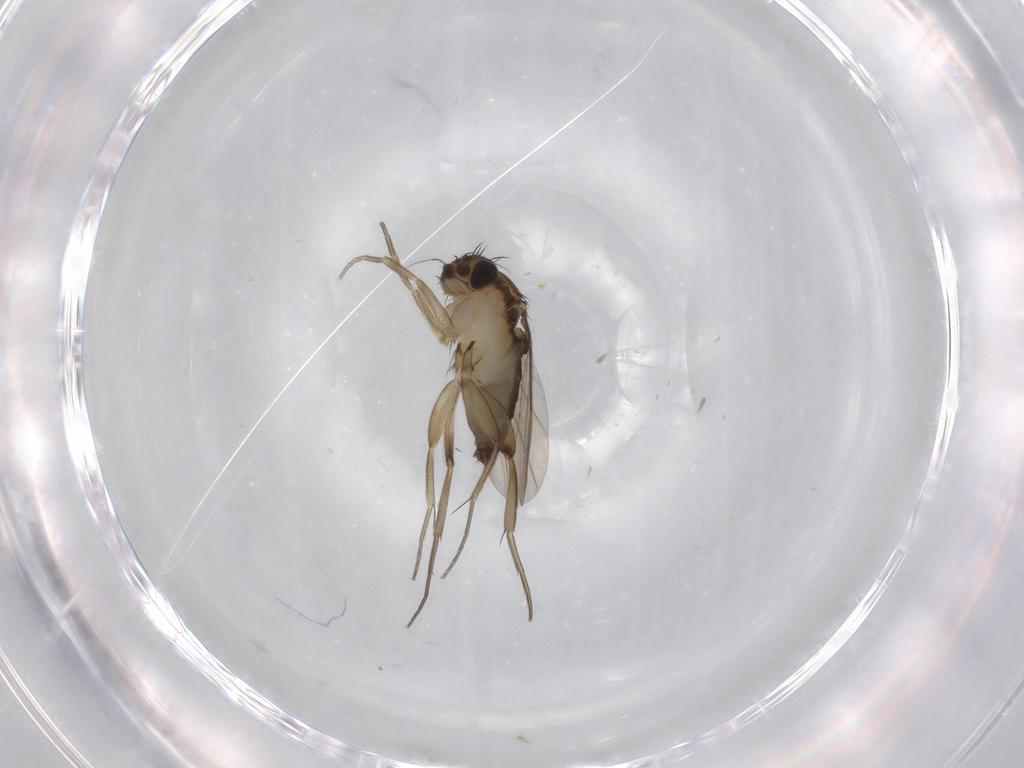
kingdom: Animalia
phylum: Arthropoda
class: Insecta
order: Diptera
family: Phoridae
